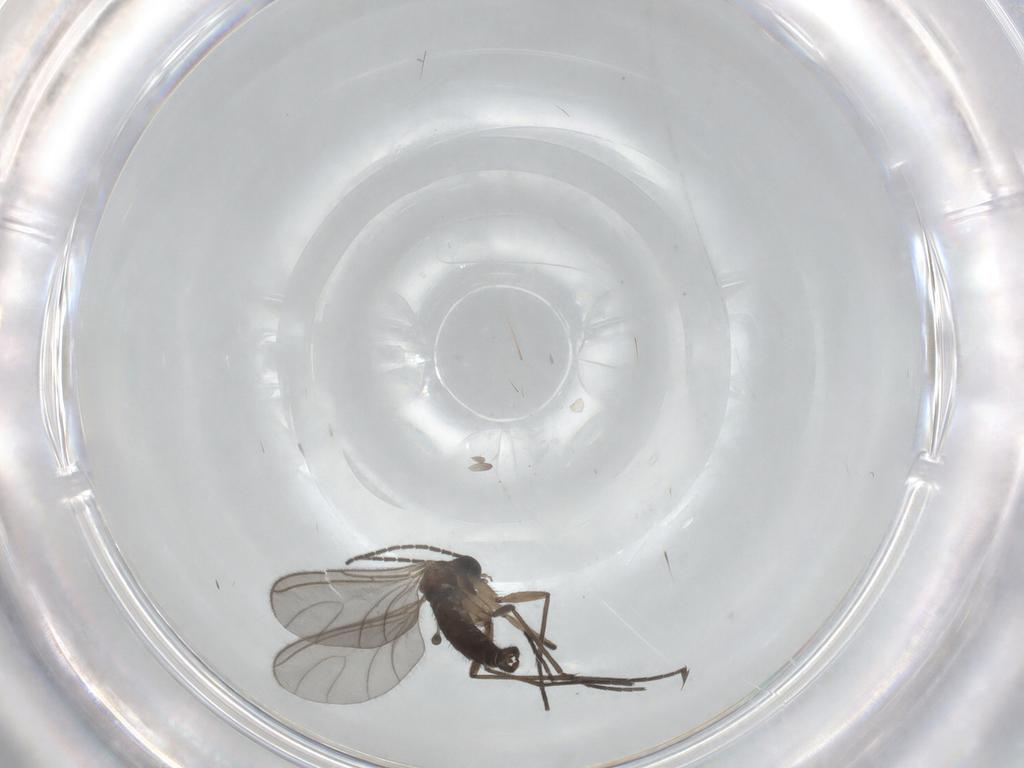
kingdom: Animalia
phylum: Arthropoda
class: Insecta
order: Diptera
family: Sciaridae
